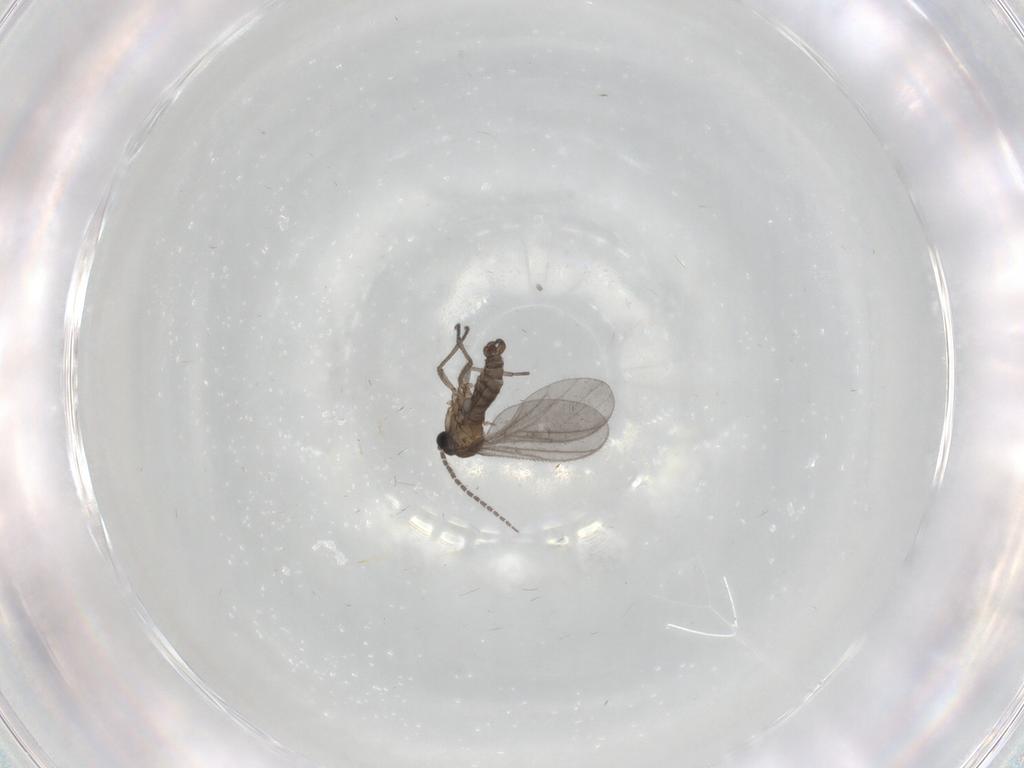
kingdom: Animalia
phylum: Arthropoda
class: Insecta
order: Diptera
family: Sciaridae
